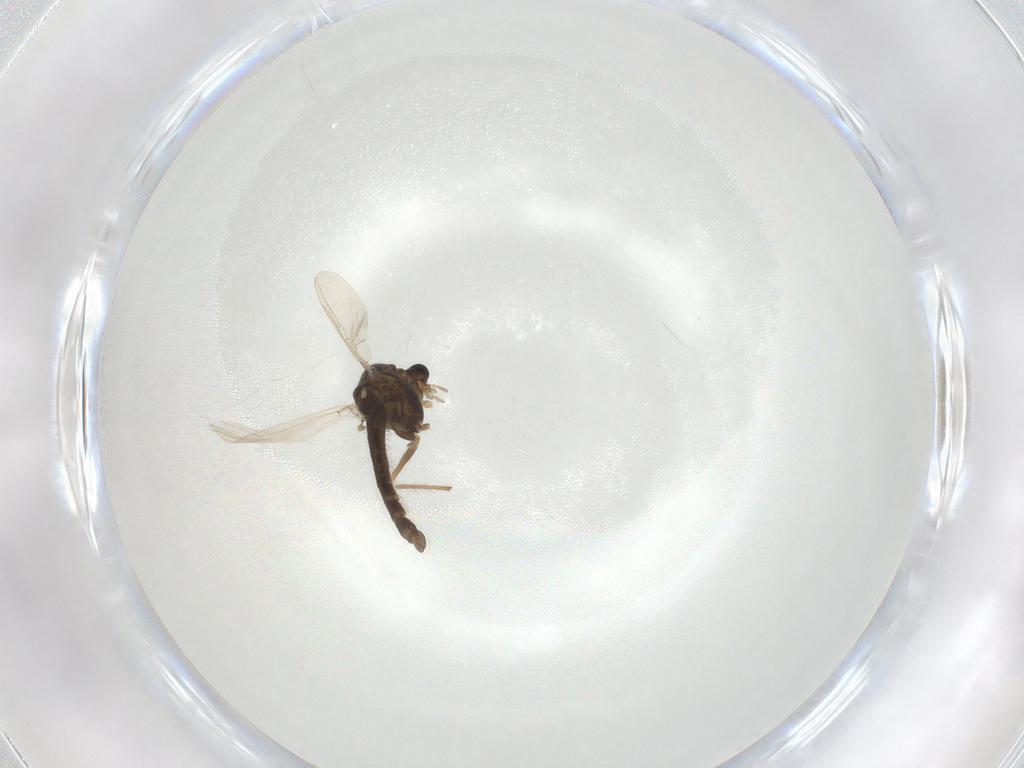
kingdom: Animalia
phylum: Arthropoda
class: Insecta
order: Diptera
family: Chironomidae
